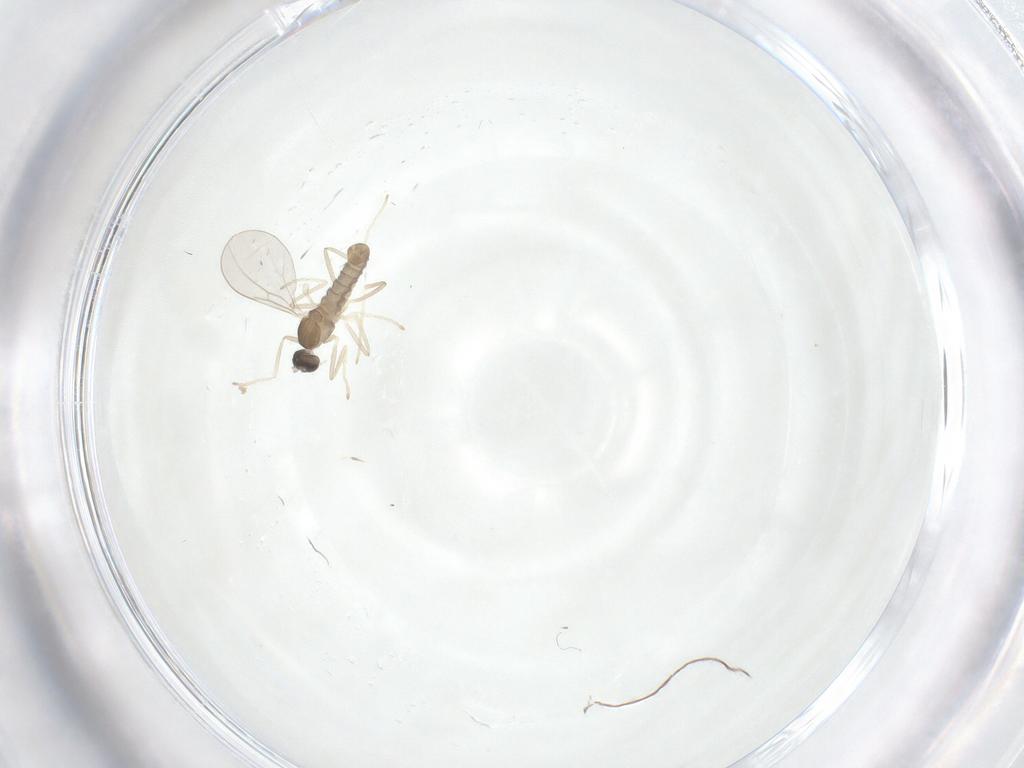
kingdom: Animalia
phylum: Arthropoda
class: Insecta
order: Diptera
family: Cecidomyiidae
